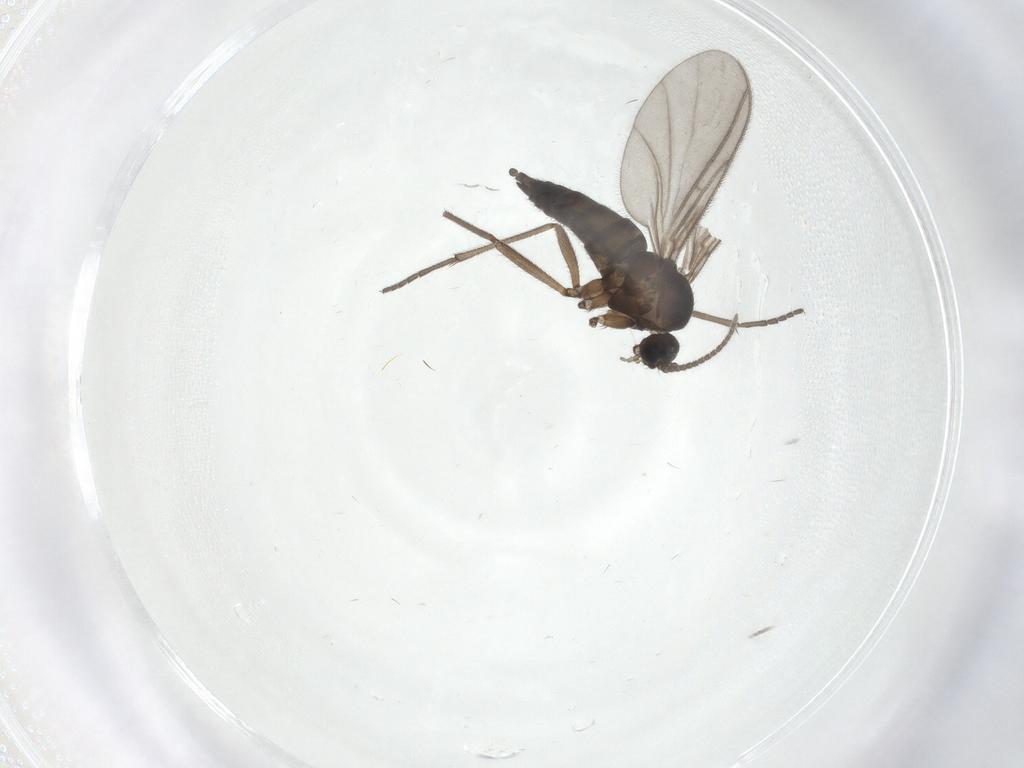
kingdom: Animalia
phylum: Arthropoda
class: Insecta
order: Diptera
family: Sciaridae
